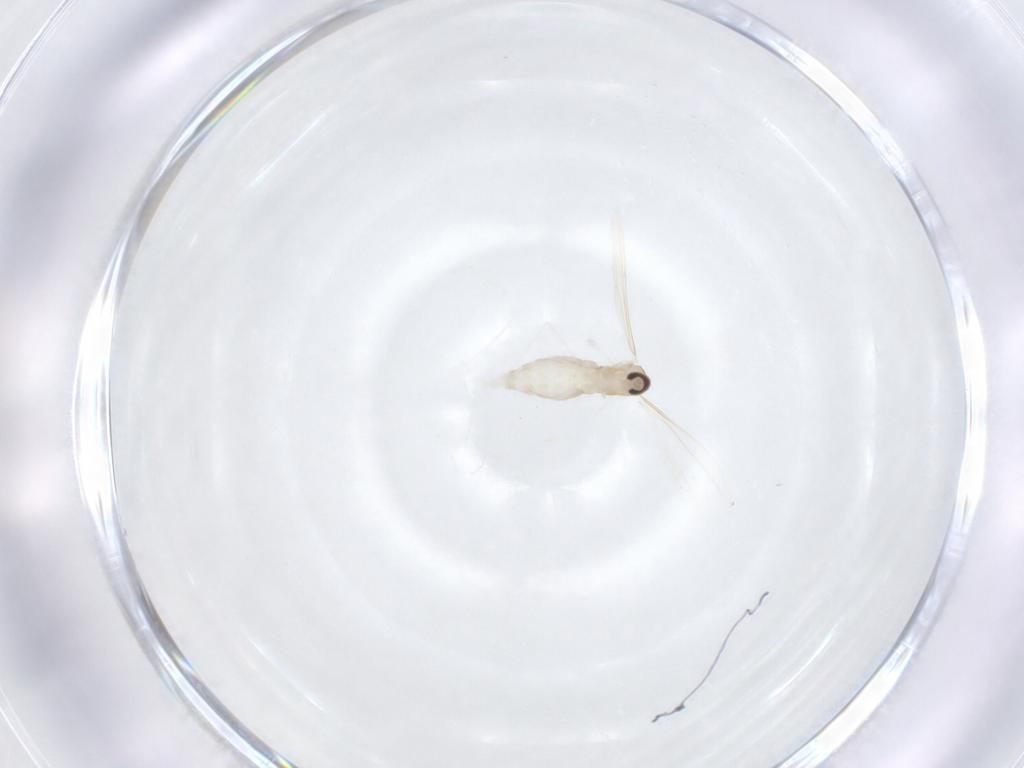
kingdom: Animalia
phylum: Arthropoda
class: Insecta
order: Diptera
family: Cecidomyiidae
